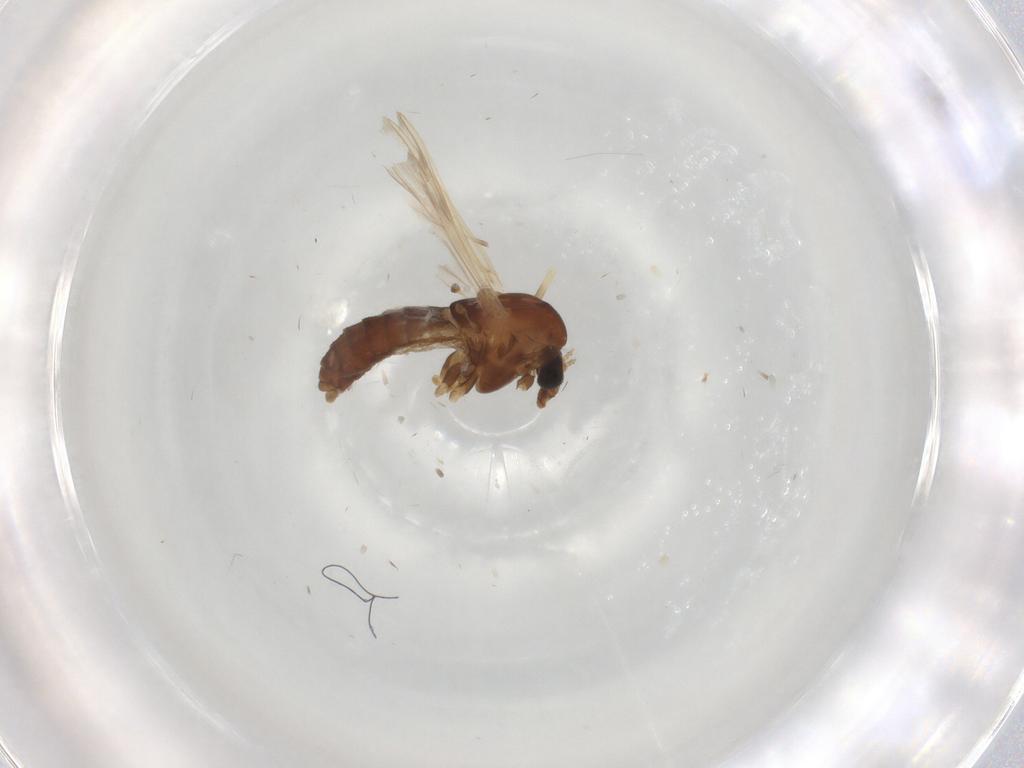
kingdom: Animalia
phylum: Arthropoda
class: Insecta
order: Diptera
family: Chironomidae
